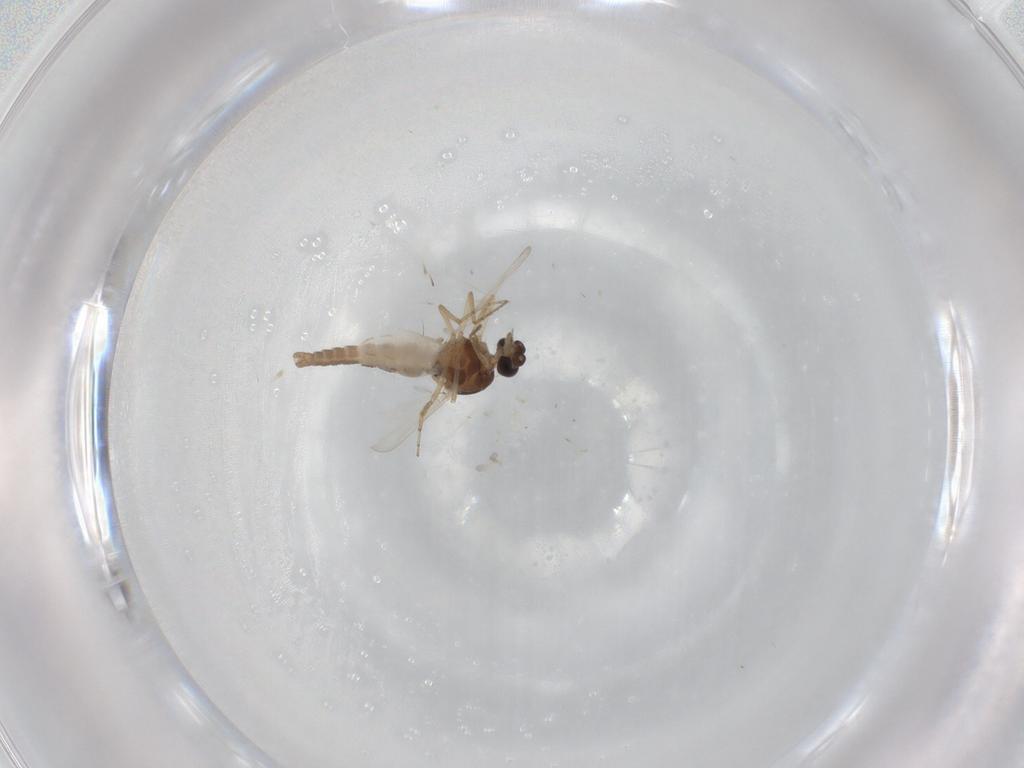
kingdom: Animalia
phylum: Arthropoda
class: Insecta
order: Diptera
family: Ceratopogonidae
